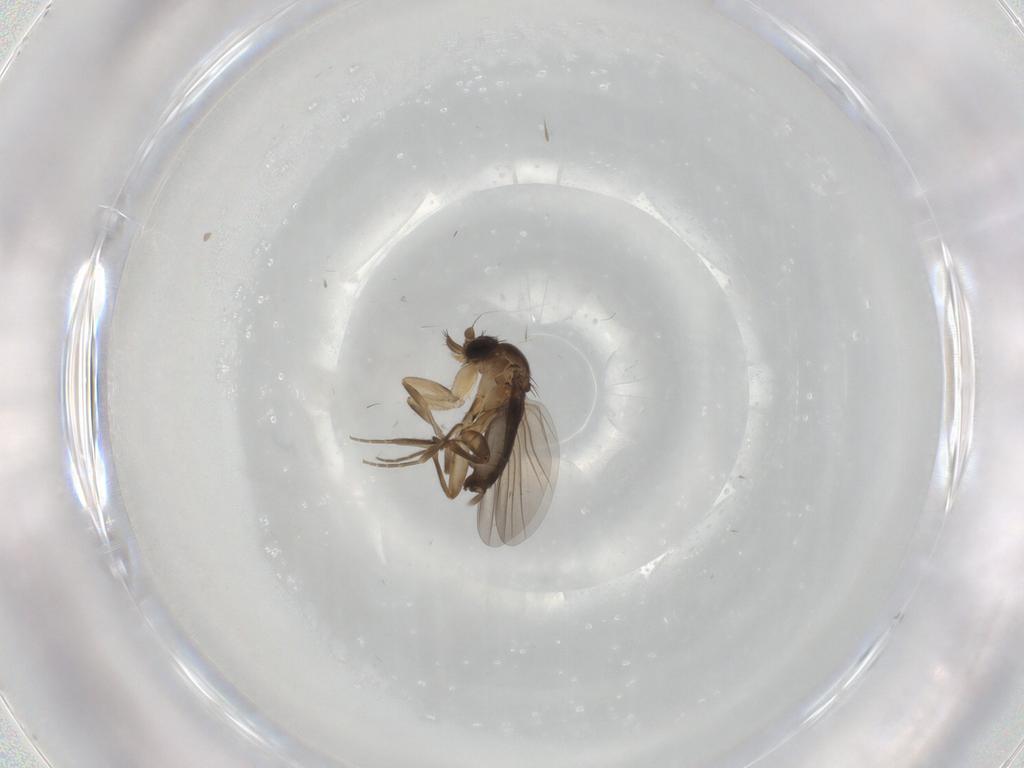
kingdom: Animalia
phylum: Arthropoda
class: Insecta
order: Diptera
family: Phoridae
